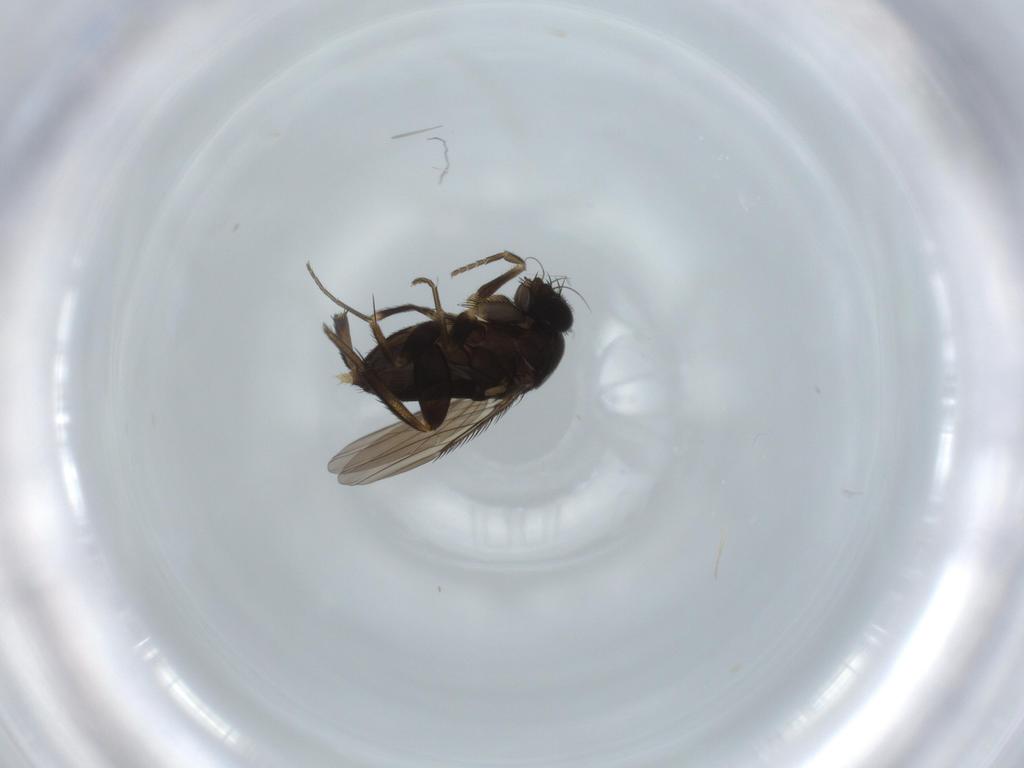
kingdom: Animalia
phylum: Arthropoda
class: Insecta
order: Diptera
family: Phoridae
